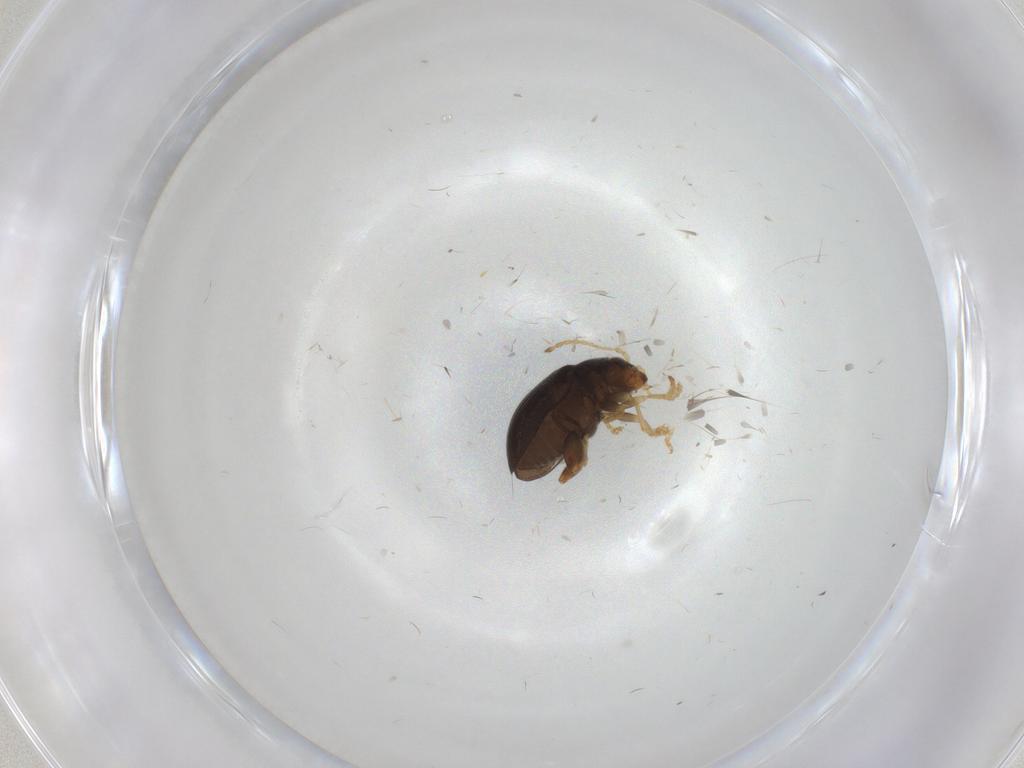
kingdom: Animalia
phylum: Arthropoda
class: Insecta
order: Coleoptera
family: Chrysomelidae
